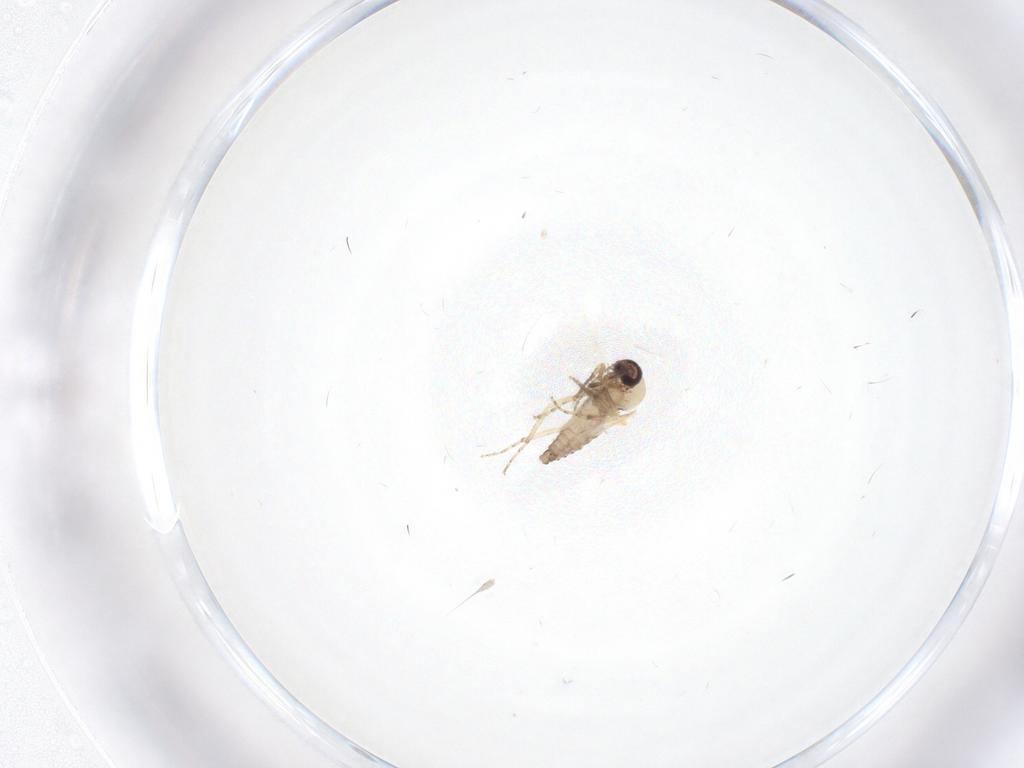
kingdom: Animalia
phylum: Arthropoda
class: Insecta
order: Diptera
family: Ceratopogonidae
